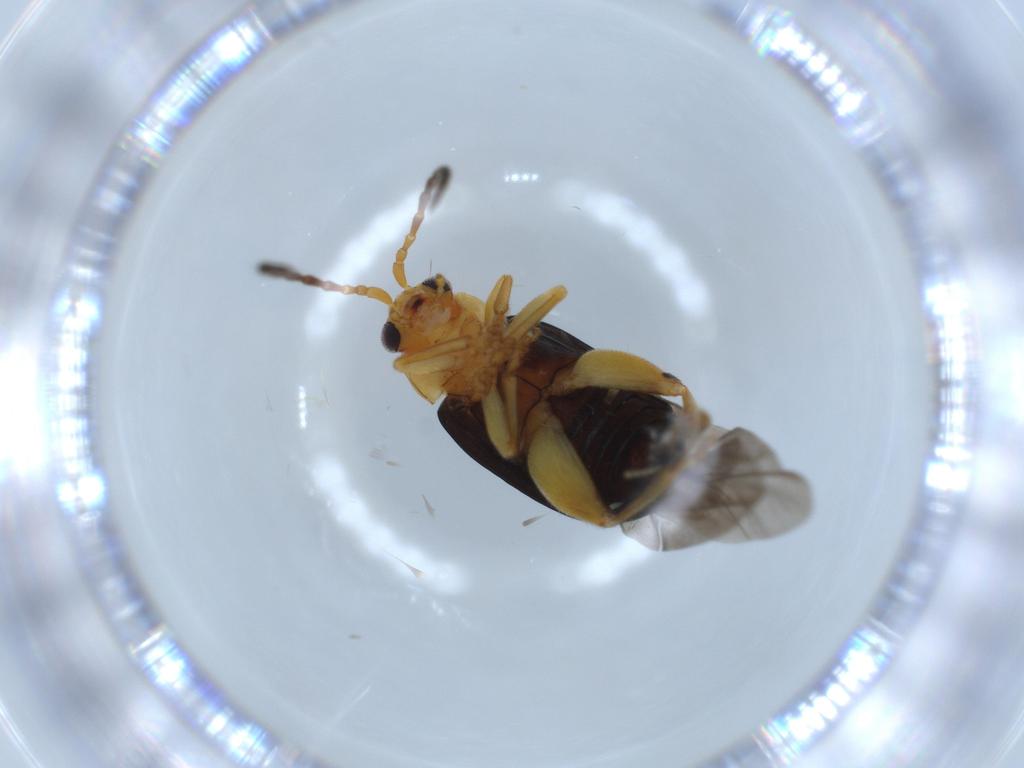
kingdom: Animalia
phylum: Arthropoda
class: Insecta
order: Coleoptera
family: Chrysomelidae
